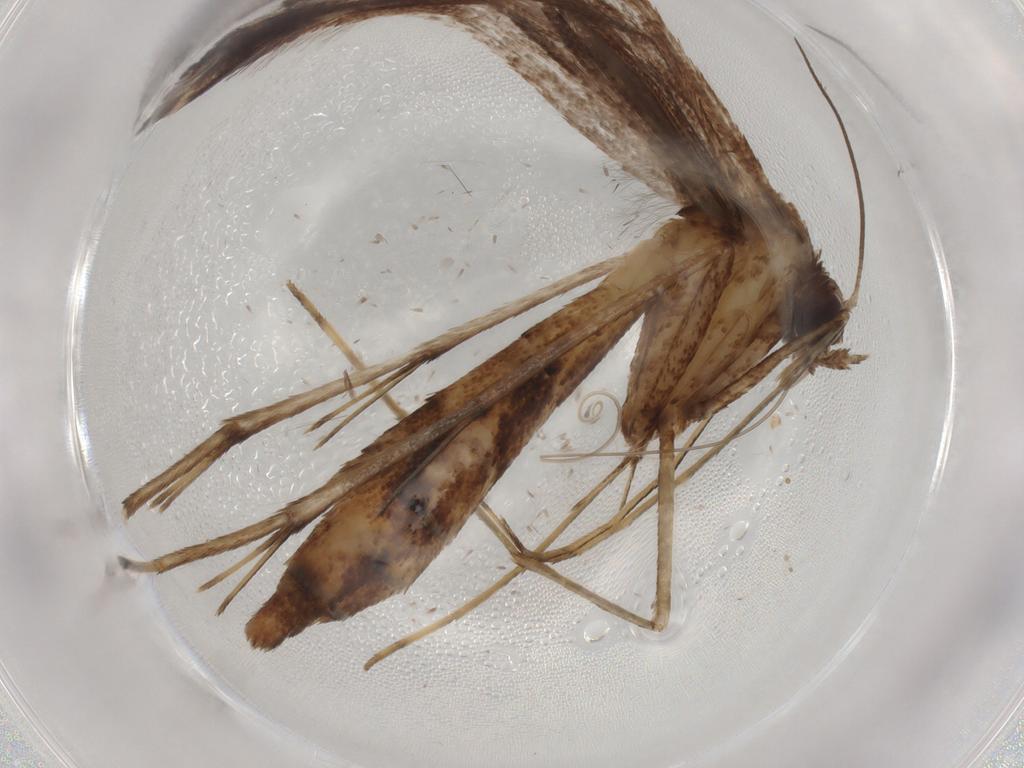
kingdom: Animalia
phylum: Arthropoda
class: Insecta
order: Lepidoptera
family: Pterophoridae
